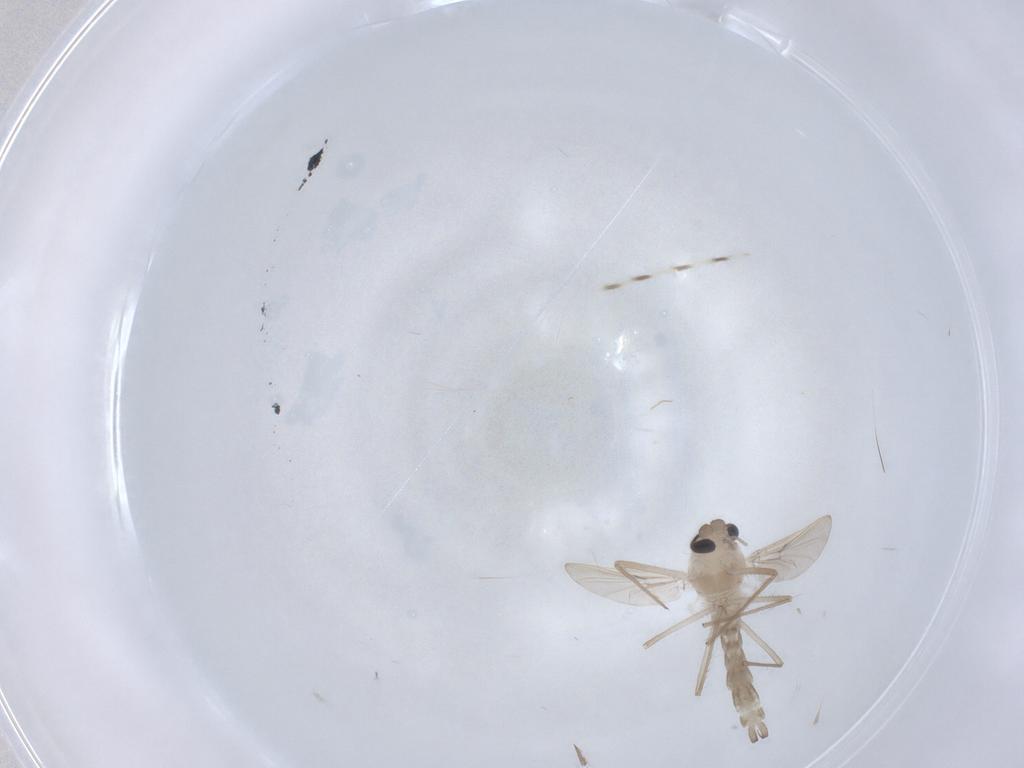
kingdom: Animalia
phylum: Arthropoda
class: Insecta
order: Diptera
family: Chironomidae
